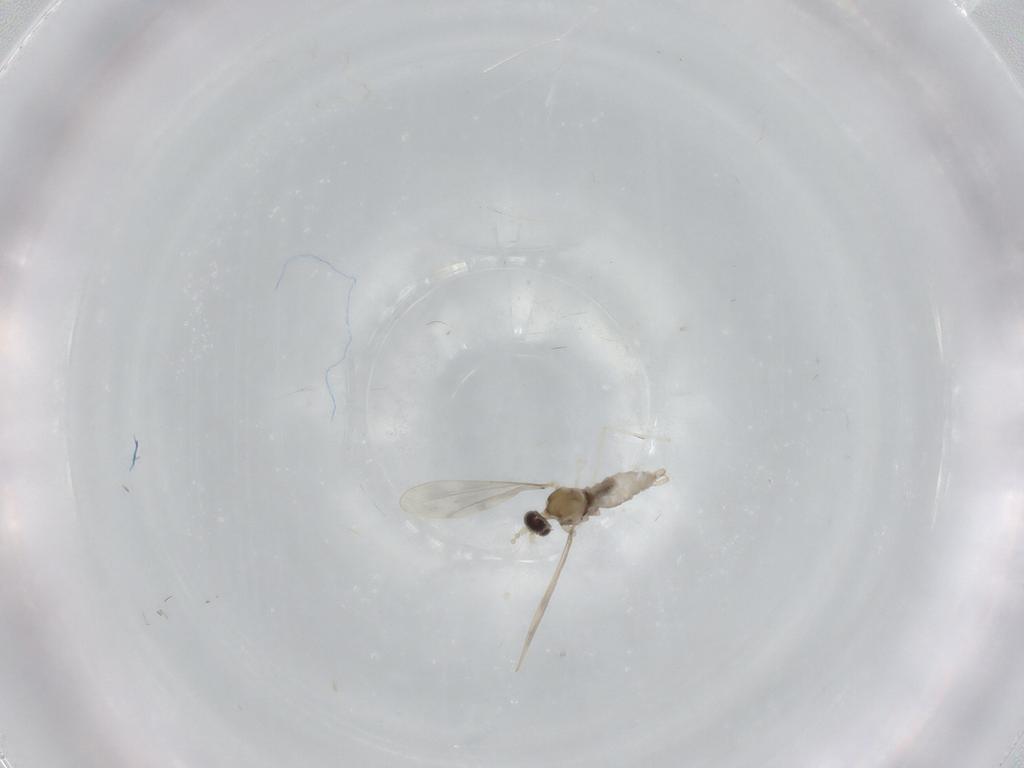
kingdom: Animalia
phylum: Arthropoda
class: Insecta
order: Diptera
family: Cecidomyiidae
